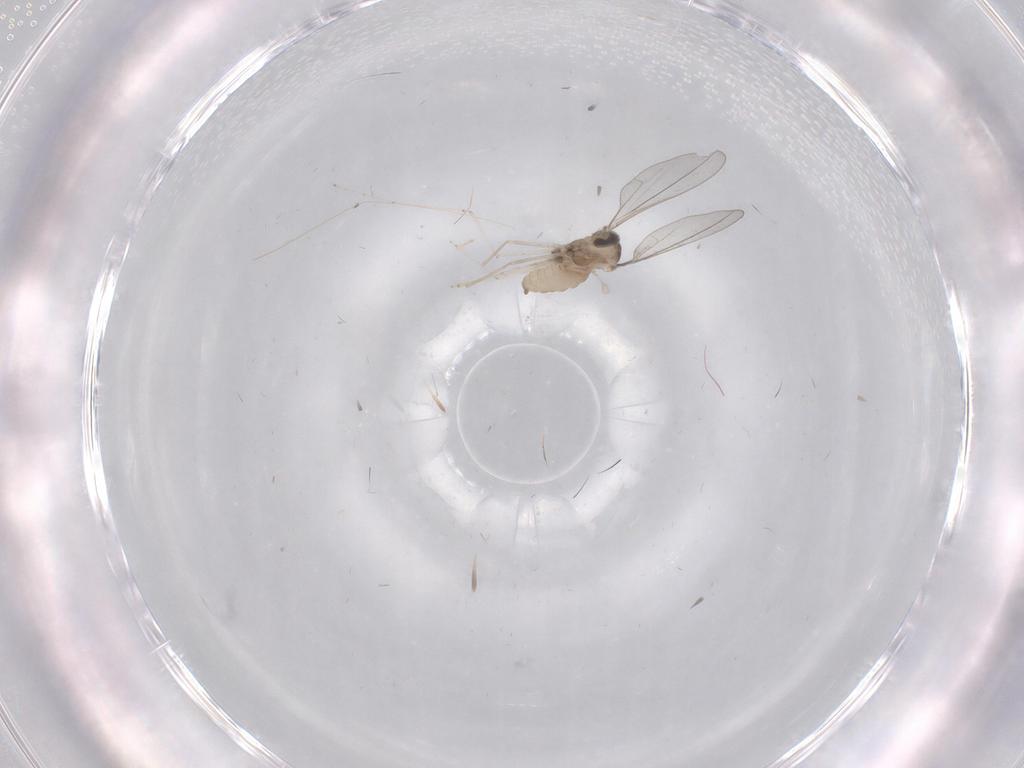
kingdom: Animalia
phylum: Arthropoda
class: Insecta
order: Diptera
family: Cecidomyiidae
